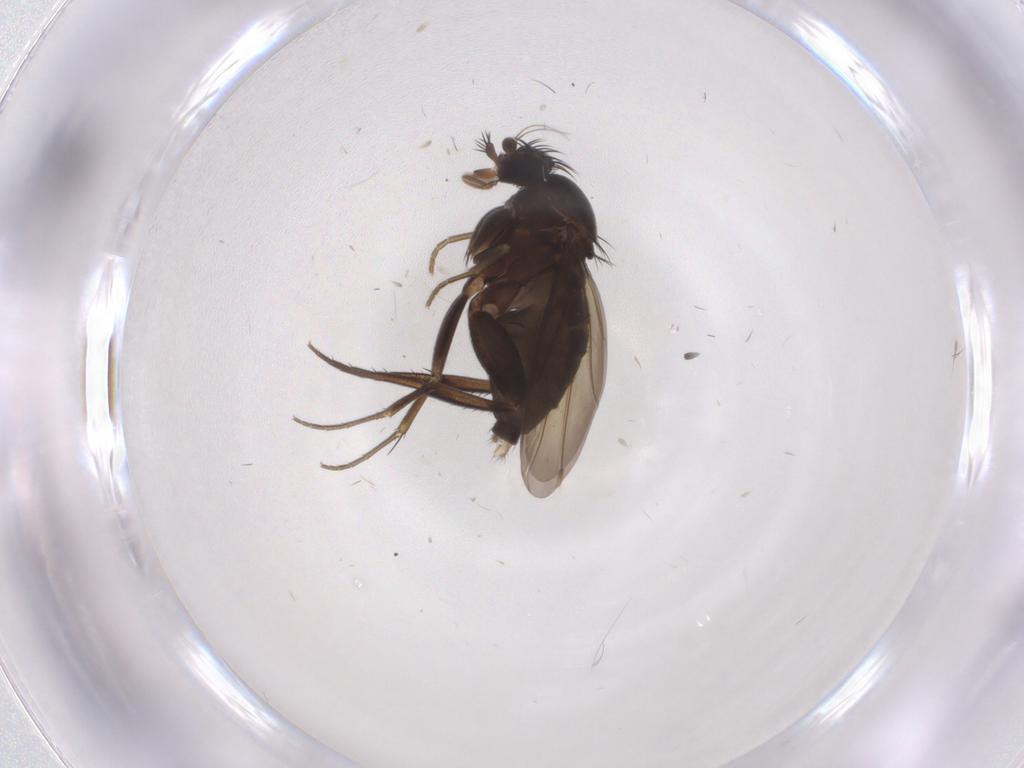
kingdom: Animalia
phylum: Arthropoda
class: Insecta
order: Diptera
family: Phoridae
